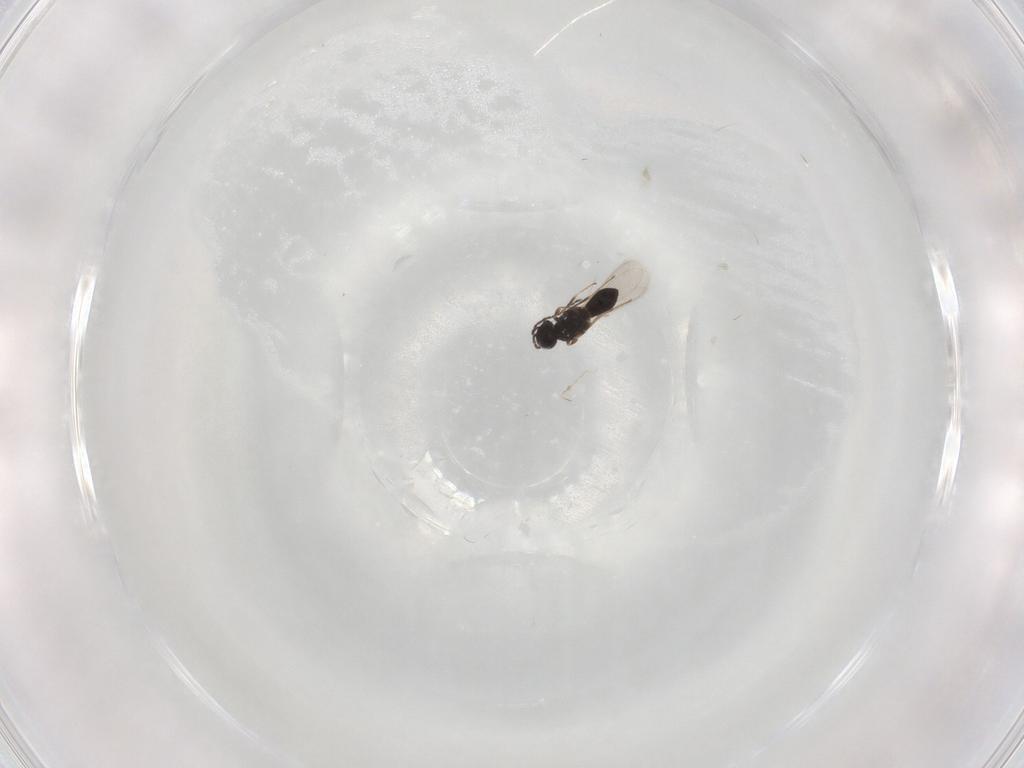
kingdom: Animalia
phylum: Arthropoda
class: Insecta
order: Hymenoptera
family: Scelionidae
